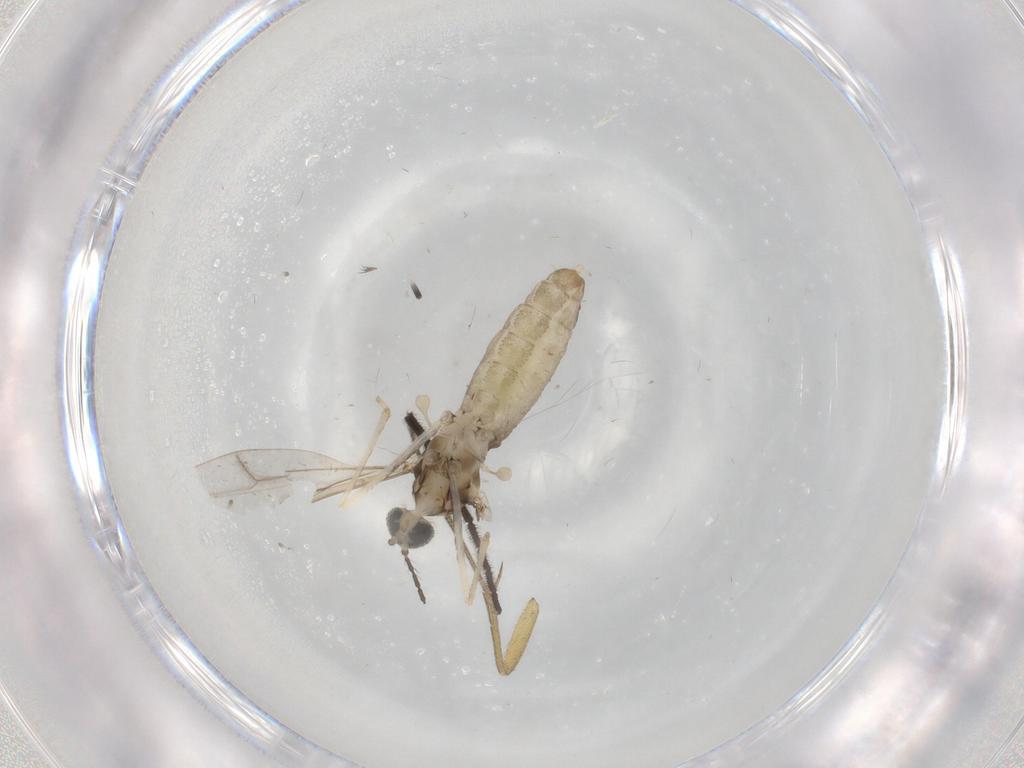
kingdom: Animalia
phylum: Arthropoda
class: Insecta
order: Diptera
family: Cecidomyiidae
